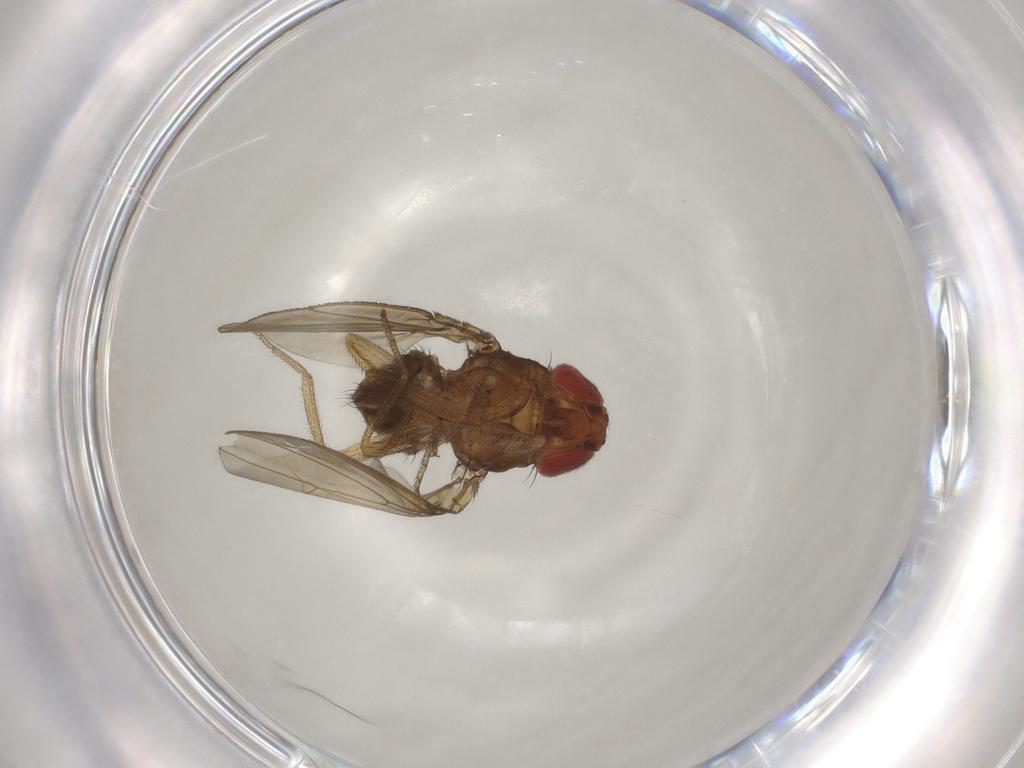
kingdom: Animalia
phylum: Arthropoda
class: Insecta
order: Diptera
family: Drosophilidae
